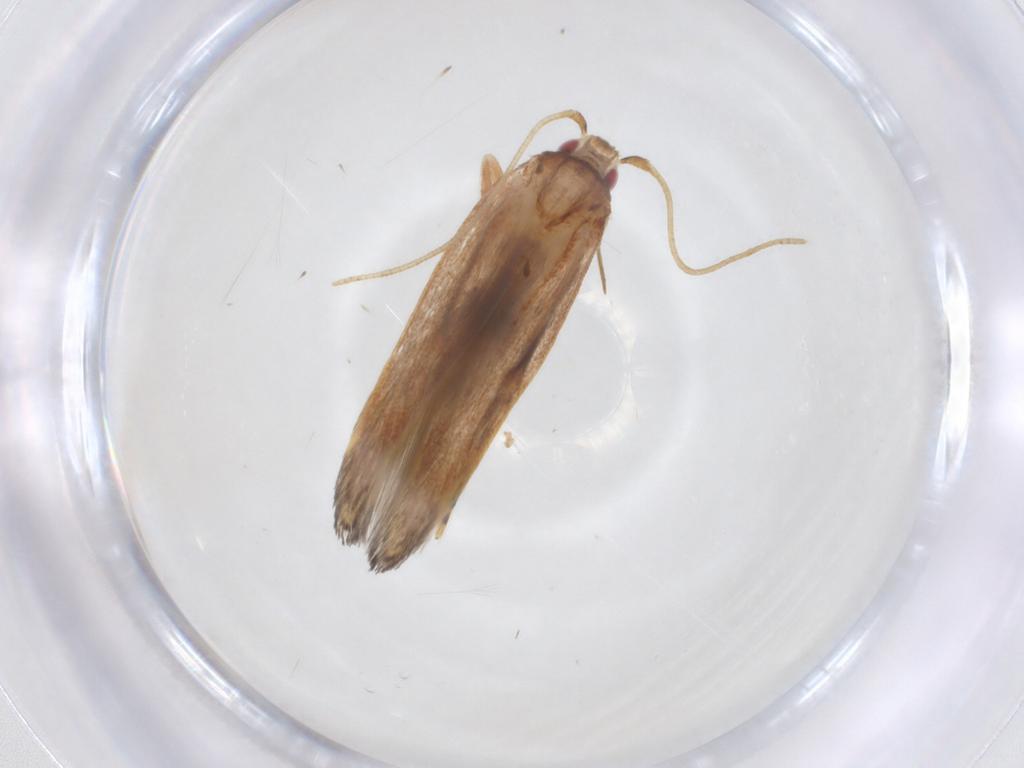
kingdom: Animalia
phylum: Arthropoda
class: Insecta
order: Lepidoptera
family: Cosmopterigidae
